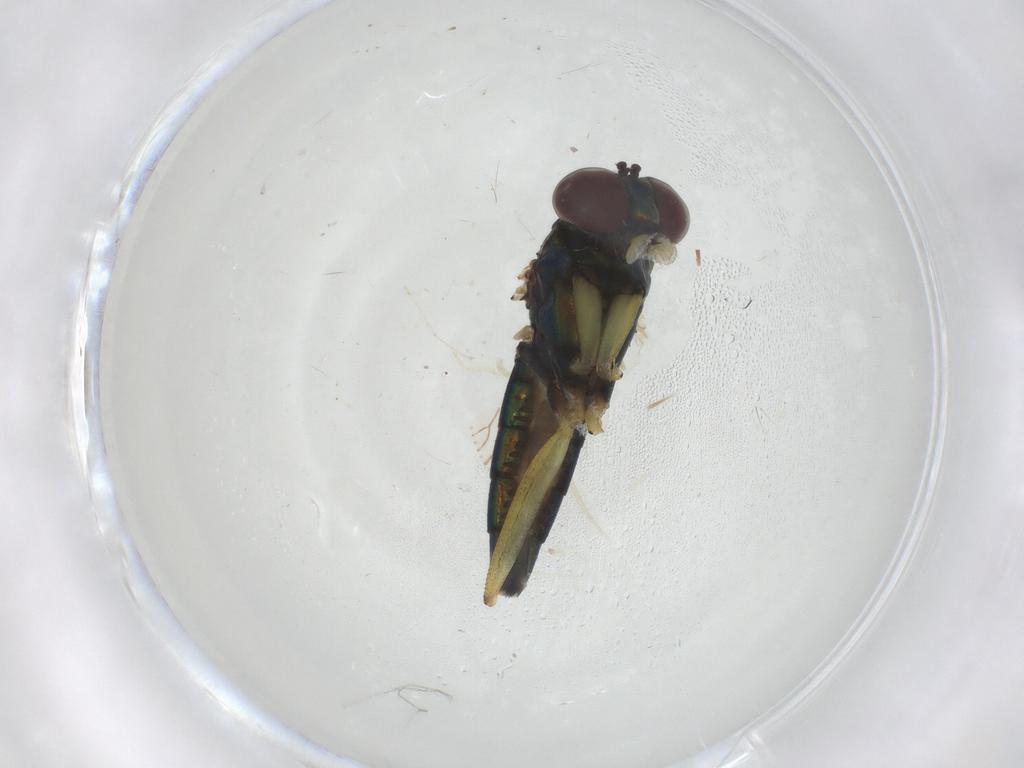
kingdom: Animalia
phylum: Arthropoda
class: Insecta
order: Diptera
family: Dolichopodidae
